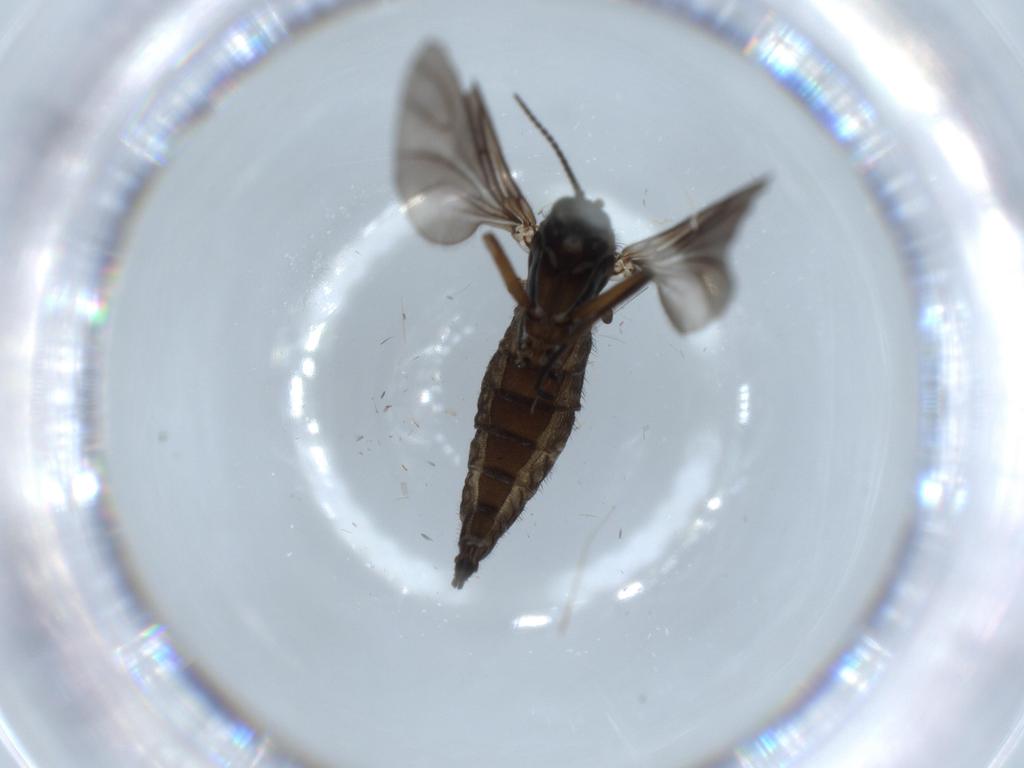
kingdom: Animalia
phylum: Arthropoda
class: Insecta
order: Diptera
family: Sciaridae
